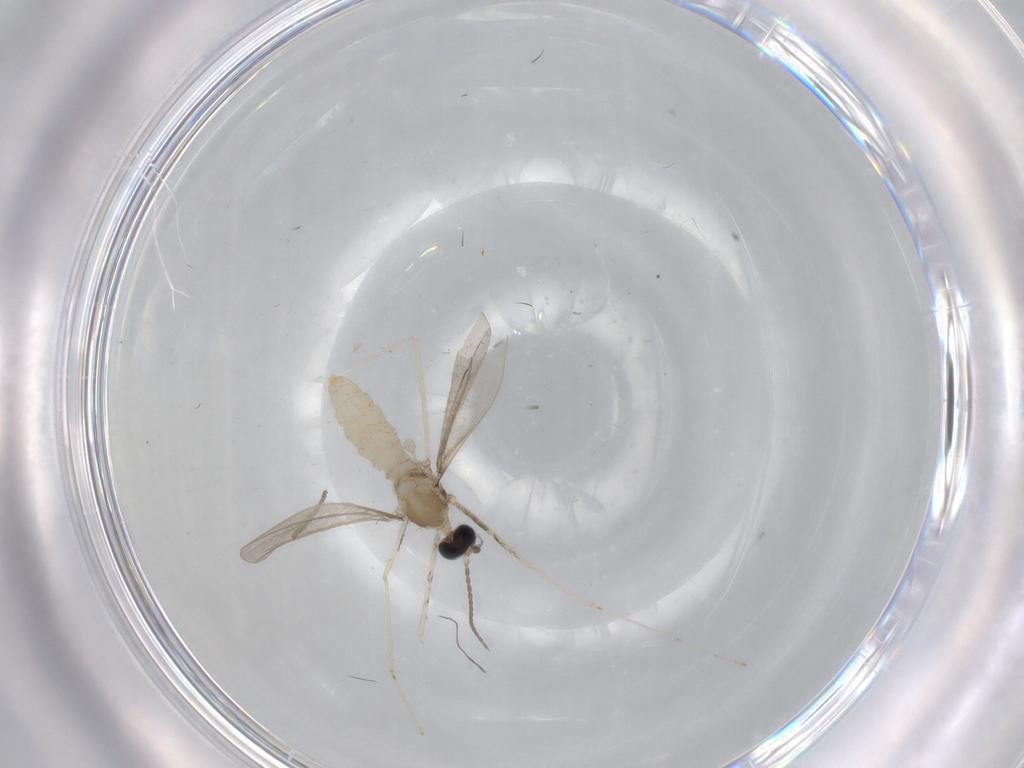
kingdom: Animalia
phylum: Arthropoda
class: Insecta
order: Diptera
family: Cecidomyiidae
